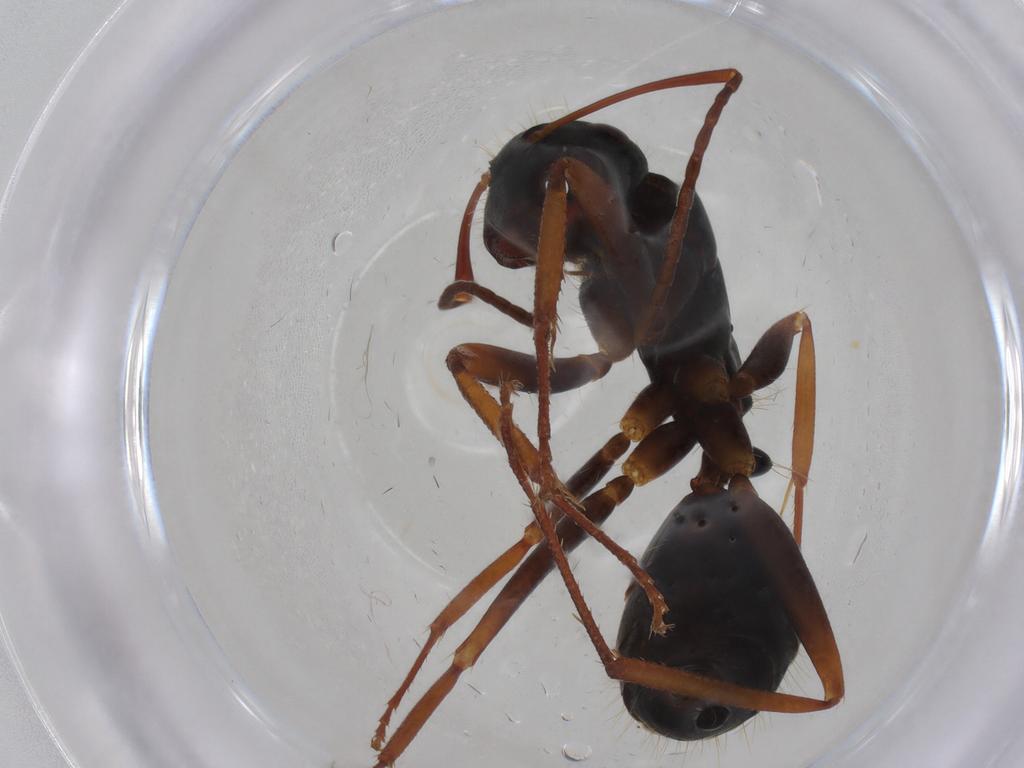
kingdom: Animalia
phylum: Arthropoda
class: Insecta
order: Hymenoptera
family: Formicidae
